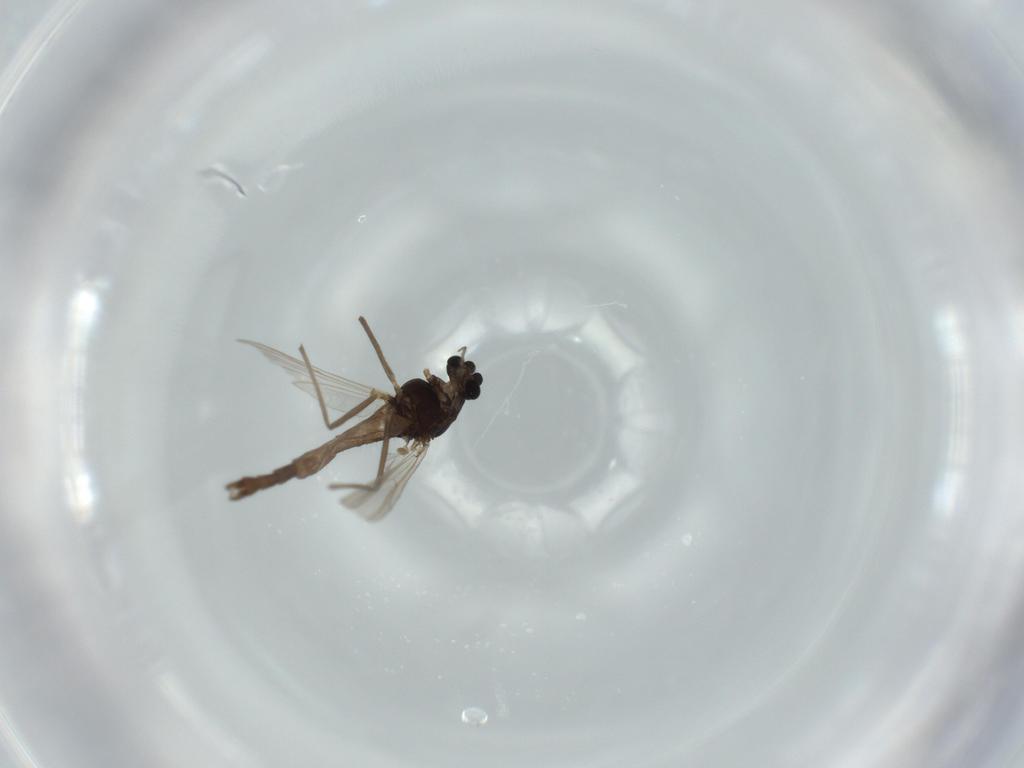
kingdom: Animalia
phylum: Arthropoda
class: Insecta
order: Diptera
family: Chironomidae
